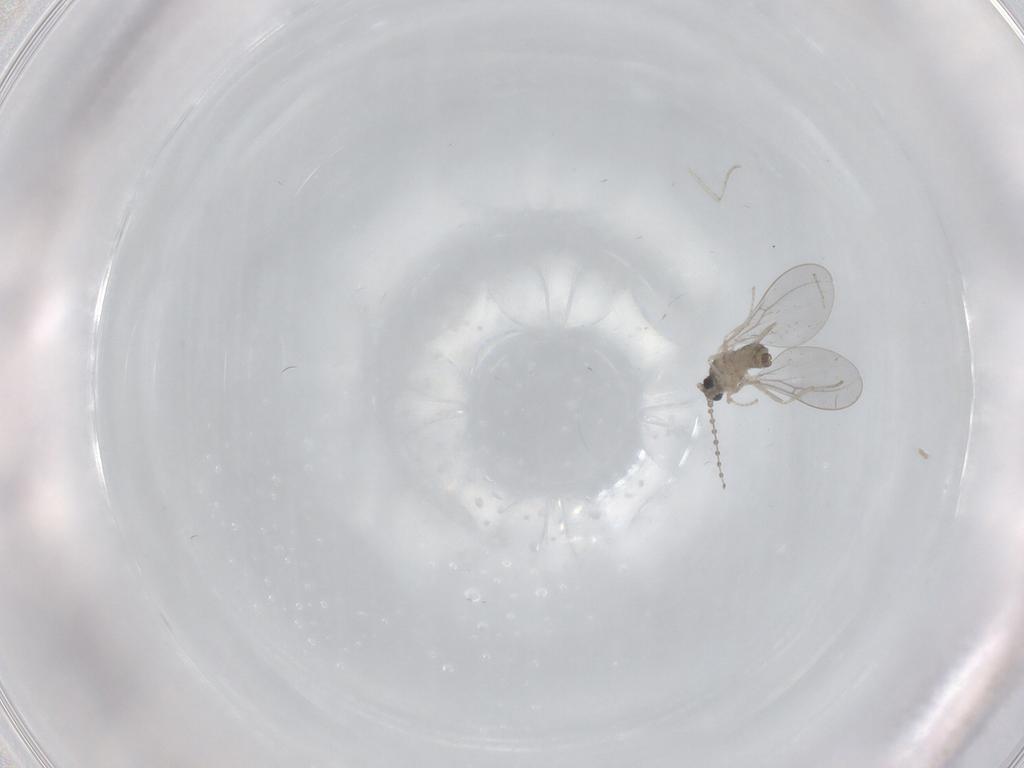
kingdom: Animalia
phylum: Arthropoda
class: Insecta
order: Diptera
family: Cecidomyiidae
